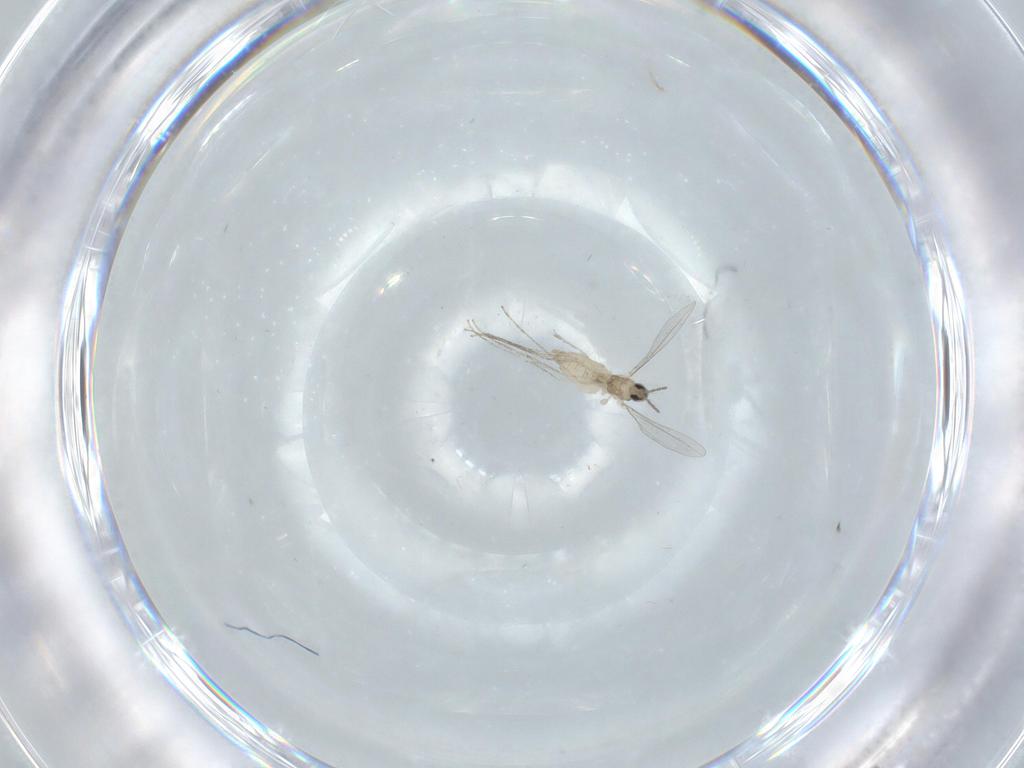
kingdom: Animalia
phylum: Arthropoda
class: Insecta
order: Diptera
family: Cecidomyiidae
